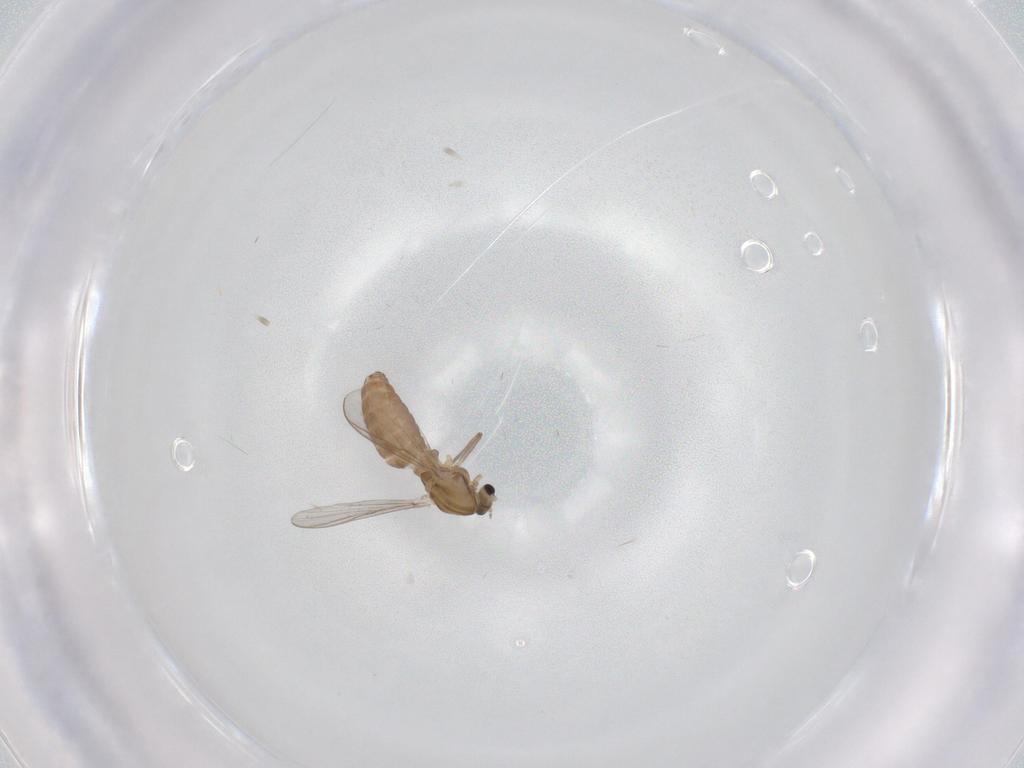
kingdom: Animalia
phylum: Arthropoda
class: Insecta
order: Diptera
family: Chironomidae
